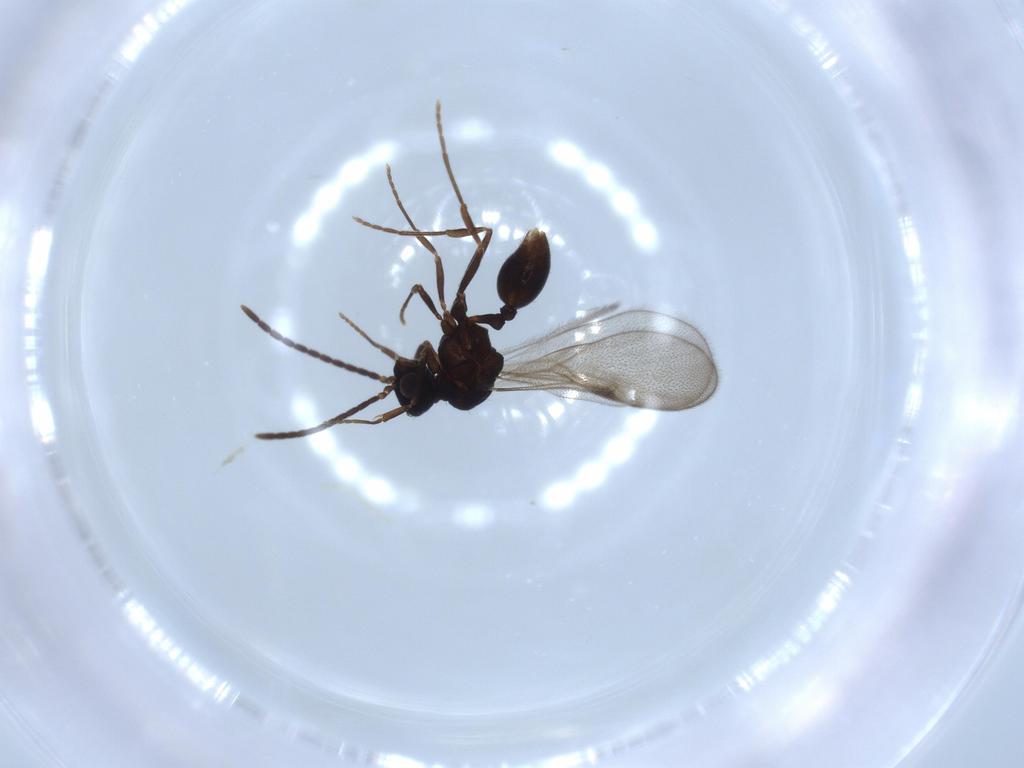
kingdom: Animalia
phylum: Arthropoda
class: Insecta
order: Hymenoptera
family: Formicidae
